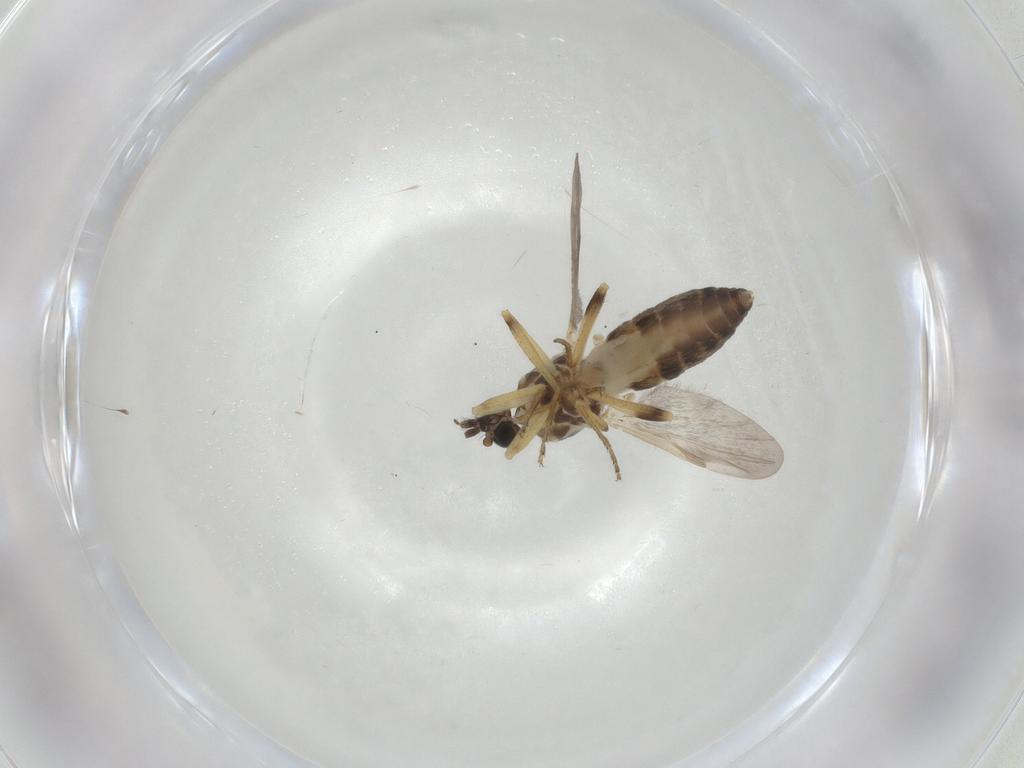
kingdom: Animalia
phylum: Arthropoda
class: Insecta
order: Diptera
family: Ceratopogonidae
